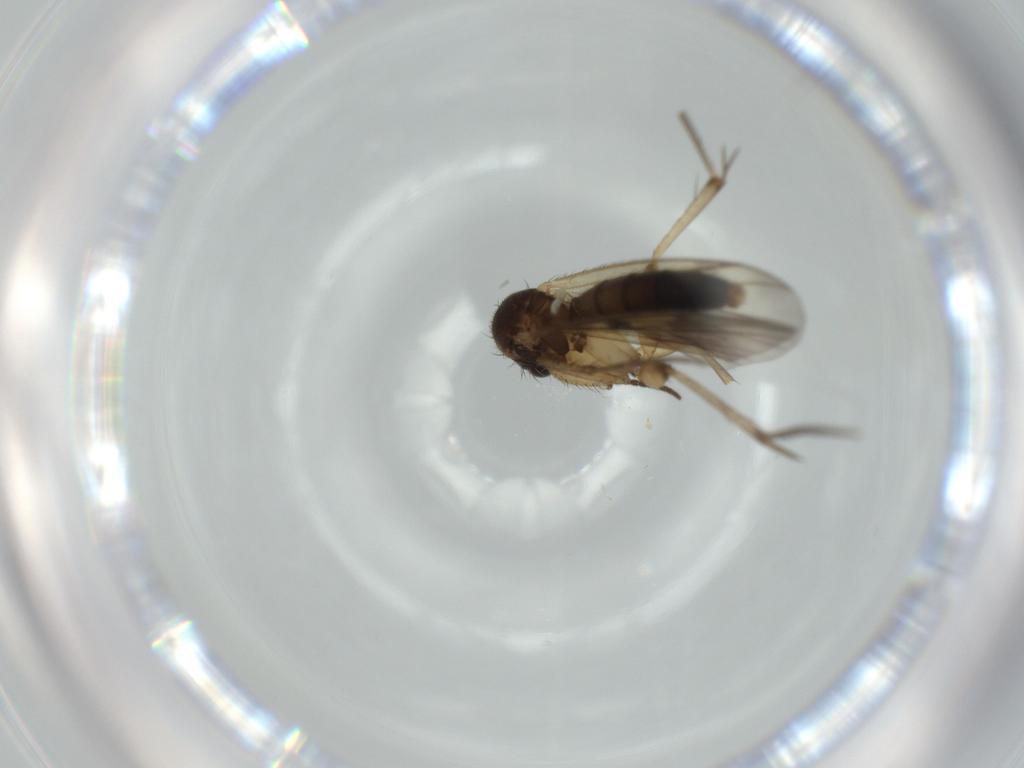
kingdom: Animalia
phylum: Arthropoda
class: Insecta
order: Diptera
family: Mycetophilidae
